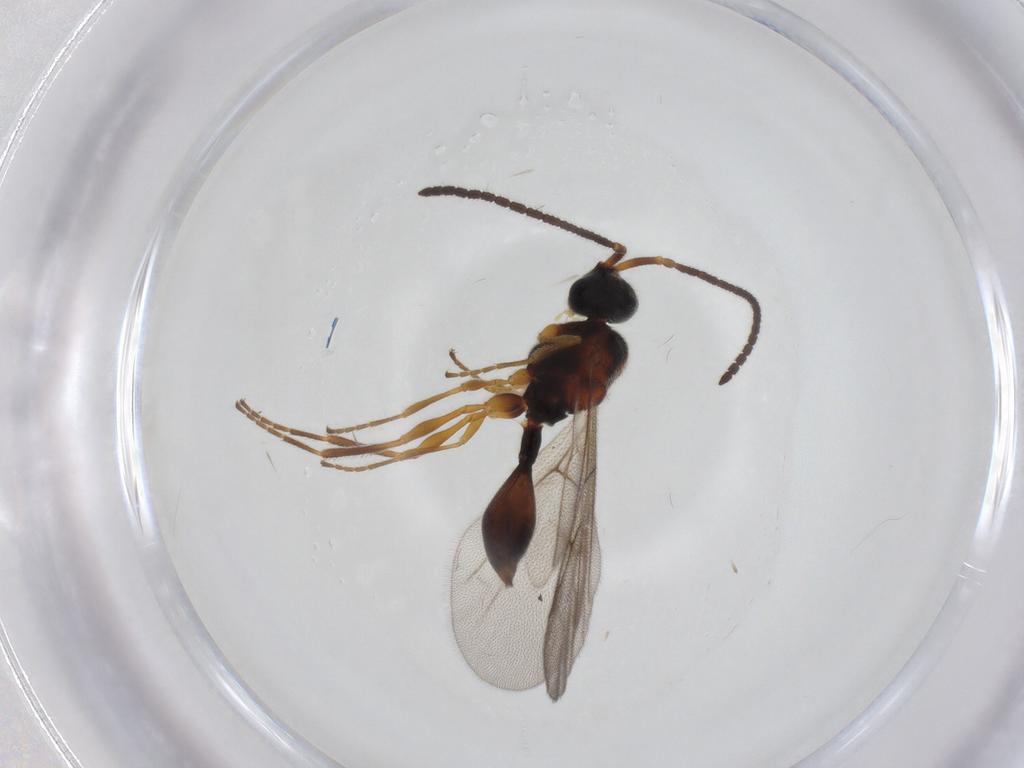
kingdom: Animalia
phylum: Arthropoda
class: Insecta
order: Hymenoptera
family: Diapriidae
